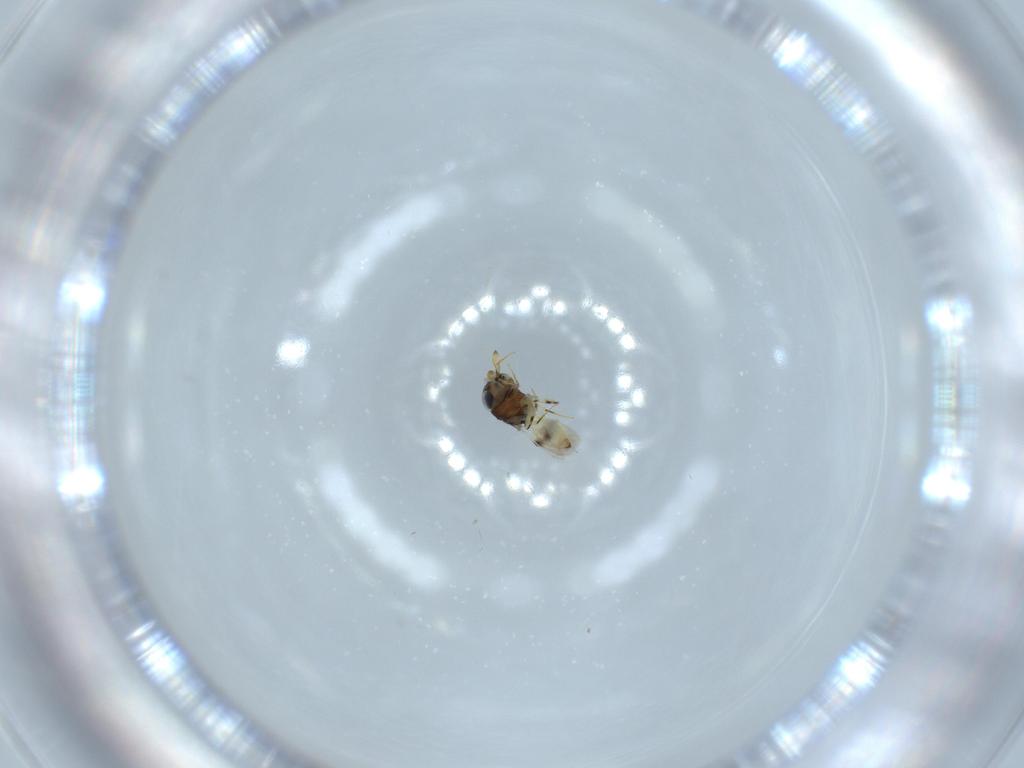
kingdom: Animalia
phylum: Arthropoda
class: Insecta
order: Hymenoptera
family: Scelionidae
